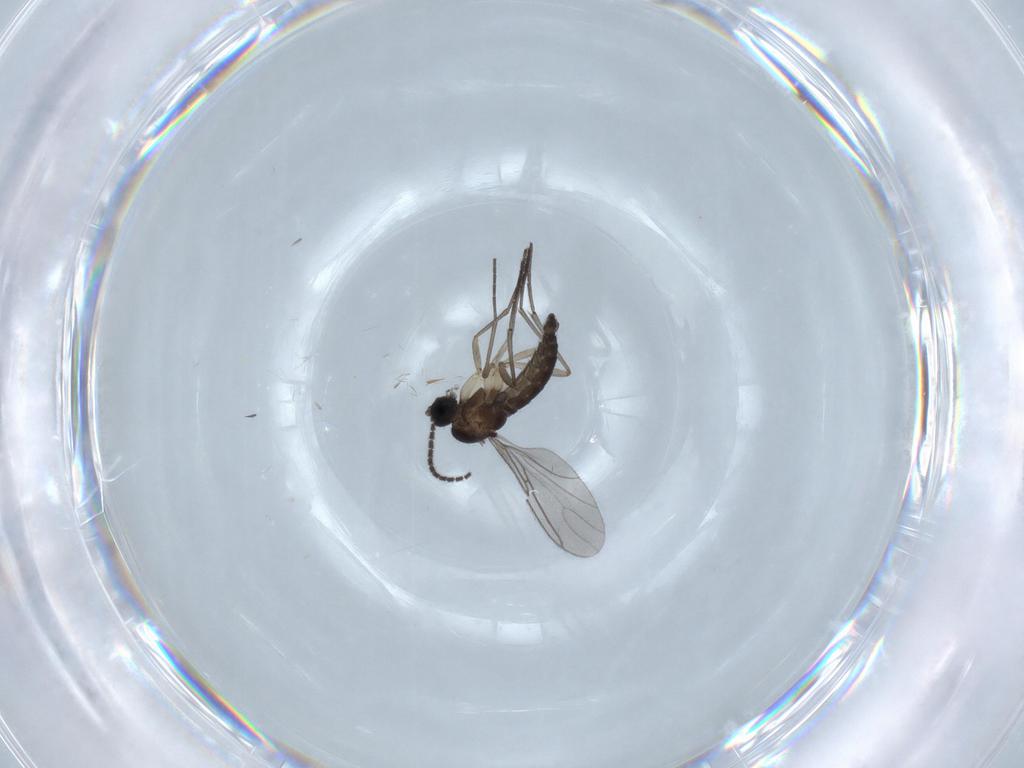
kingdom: Animalia
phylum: Arthropoda
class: Insecta
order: Diptera
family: Sciaridae
